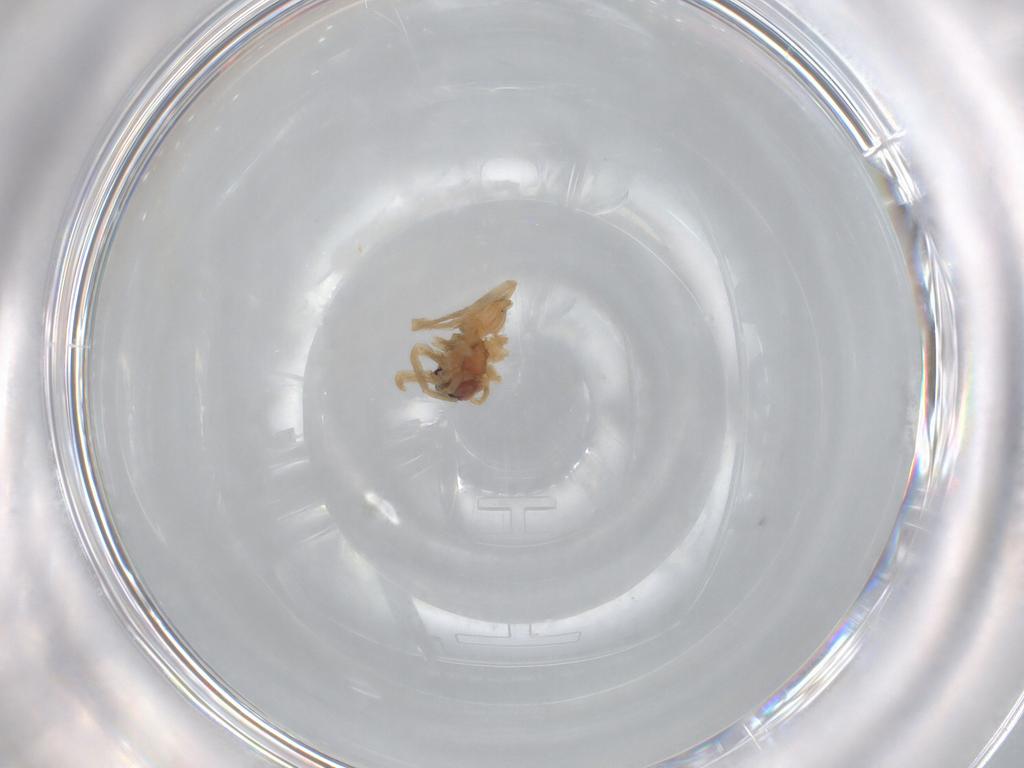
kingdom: Animalia
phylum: Arthropoda
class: Arachnida
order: Araneae
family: Lycosidae
